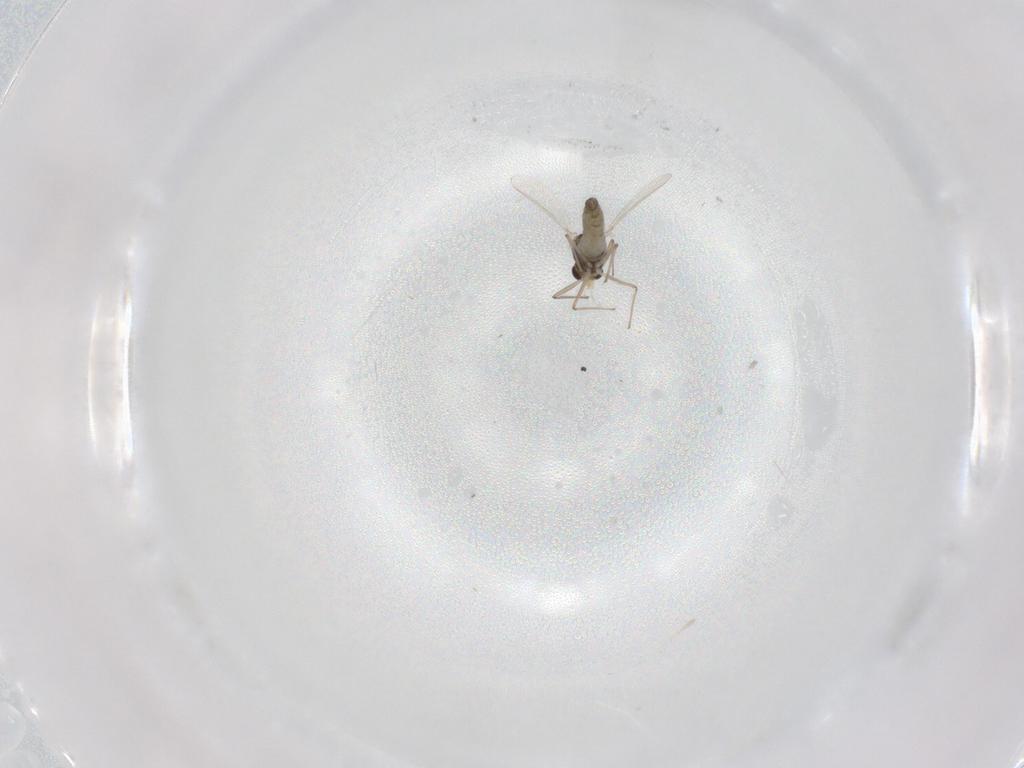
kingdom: Animalia
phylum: Arthropoda
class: Insecta
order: Diptera
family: Chironomidae
